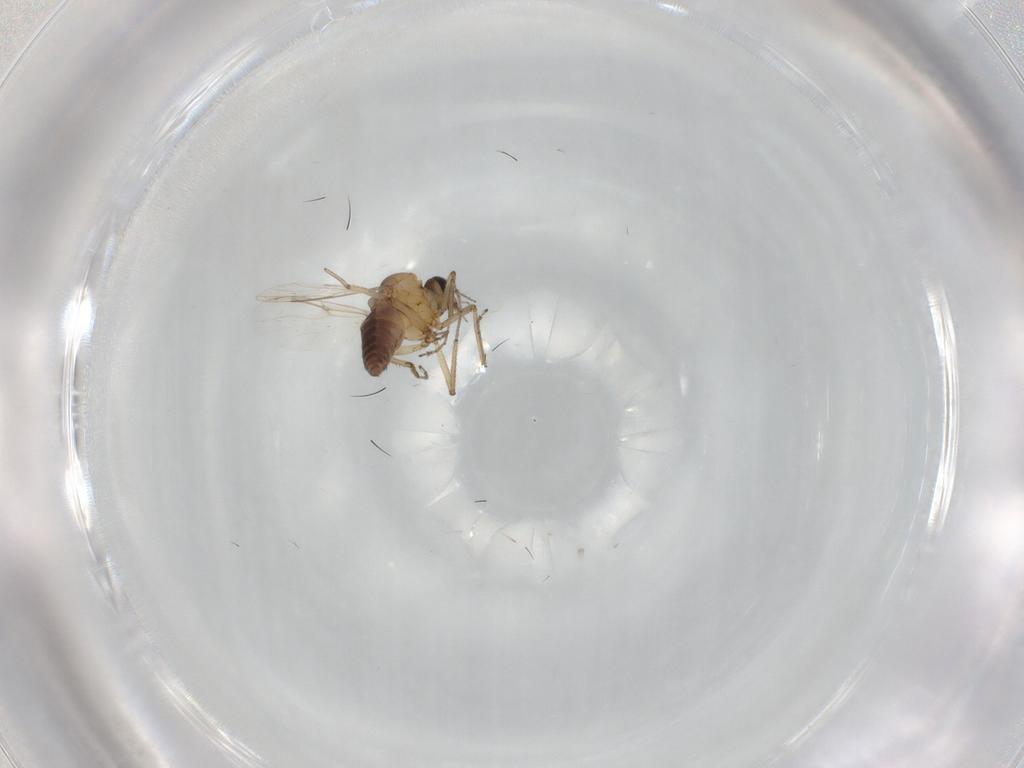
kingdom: Animalia
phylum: Arthropoda
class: Insecta
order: Diptera
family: Ceratopogonidae
